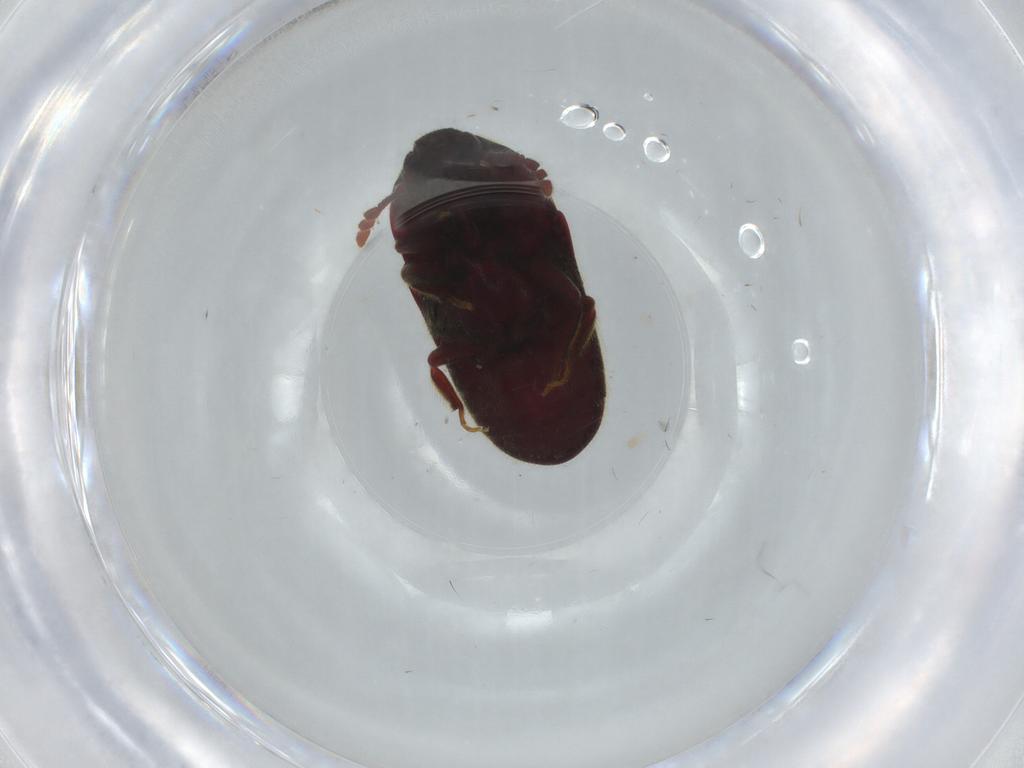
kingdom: Animalia
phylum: Arthropoda
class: Insecta
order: Coleoptera
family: Throscidae
